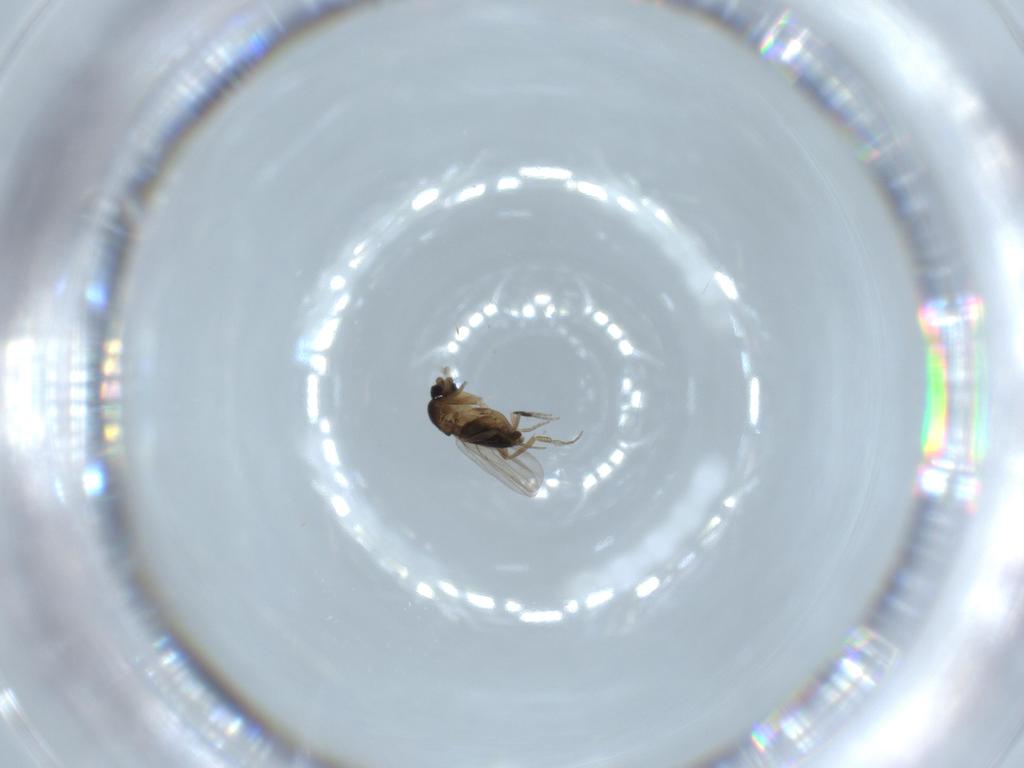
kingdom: Animalia
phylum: Arthropoda
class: Insecta
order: Diptera
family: Phoridae
